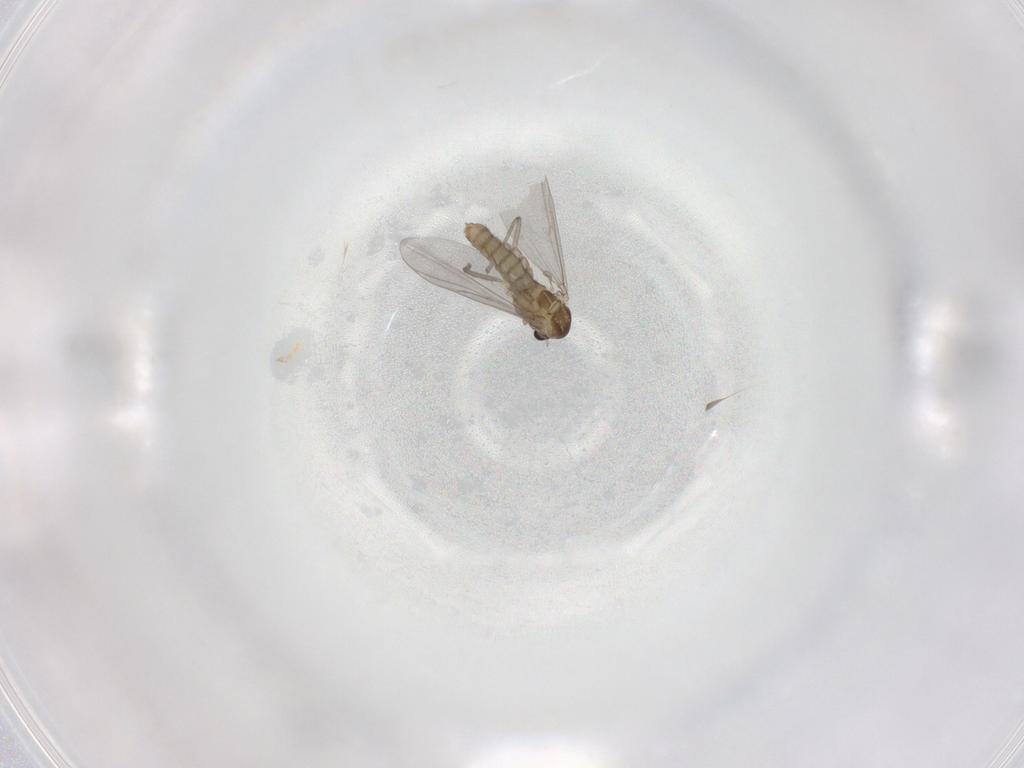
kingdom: Animalia
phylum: Arthropoda
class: Insecta
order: Diptera
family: Chironomidae
